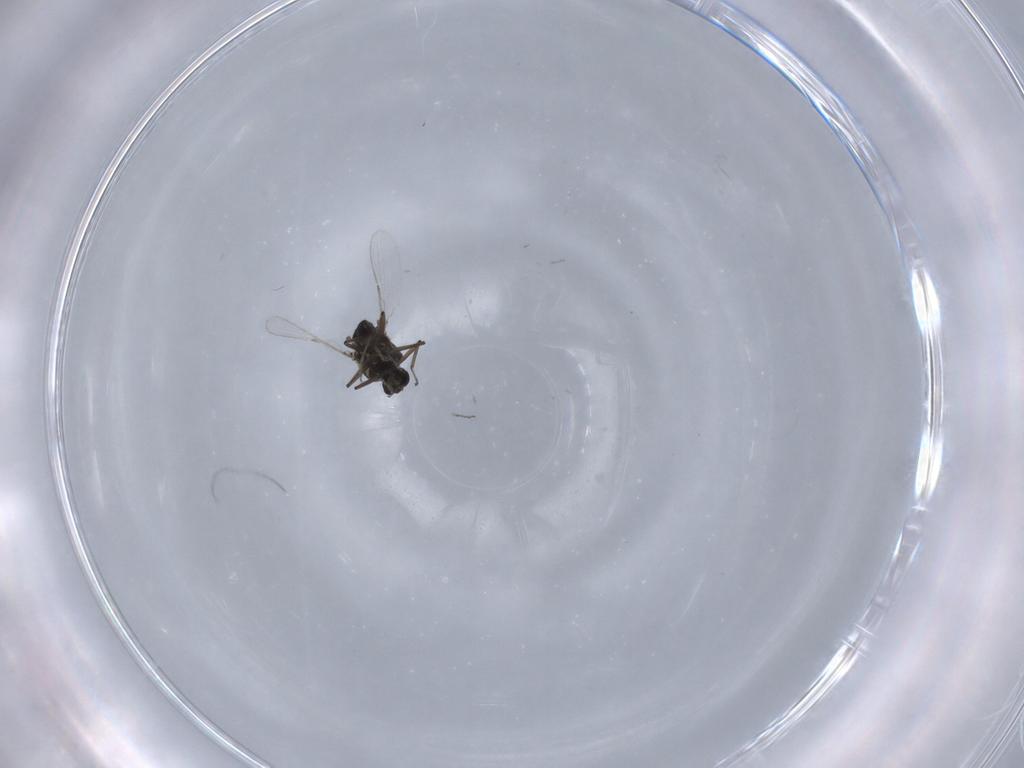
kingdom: Animalia
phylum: Arthropoda
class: Insecta
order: Diptera
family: Ceratopogonidae
